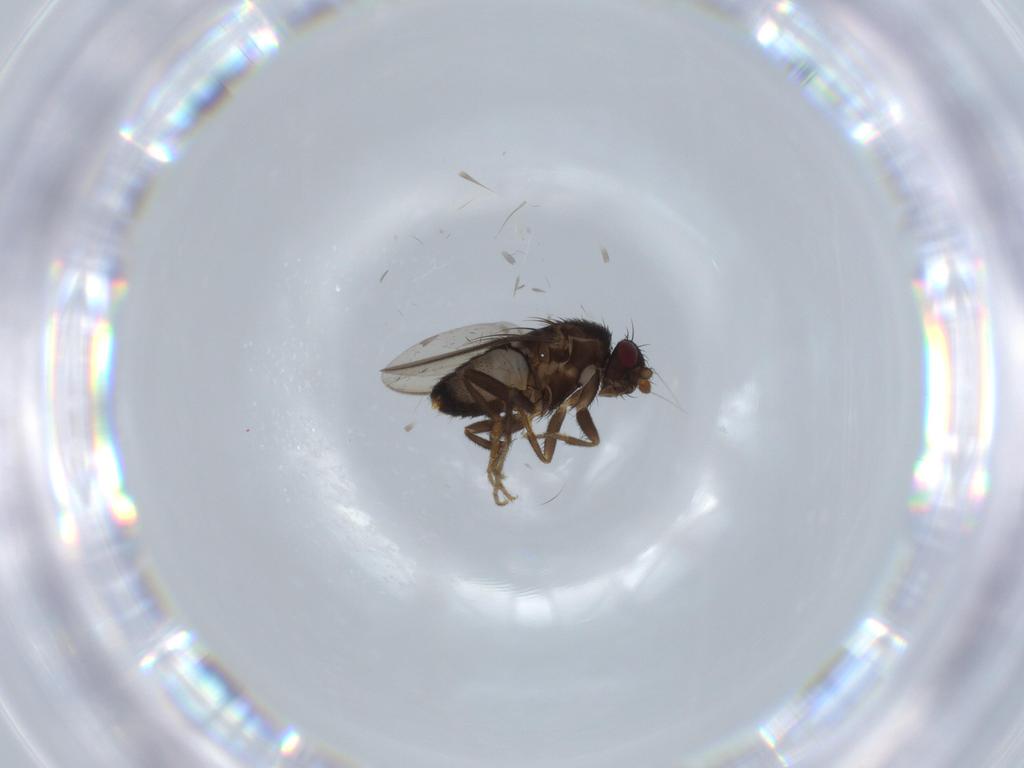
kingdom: Animalia
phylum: Arthropoda
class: Insecta
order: Diptera
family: Sphaeroceridae
